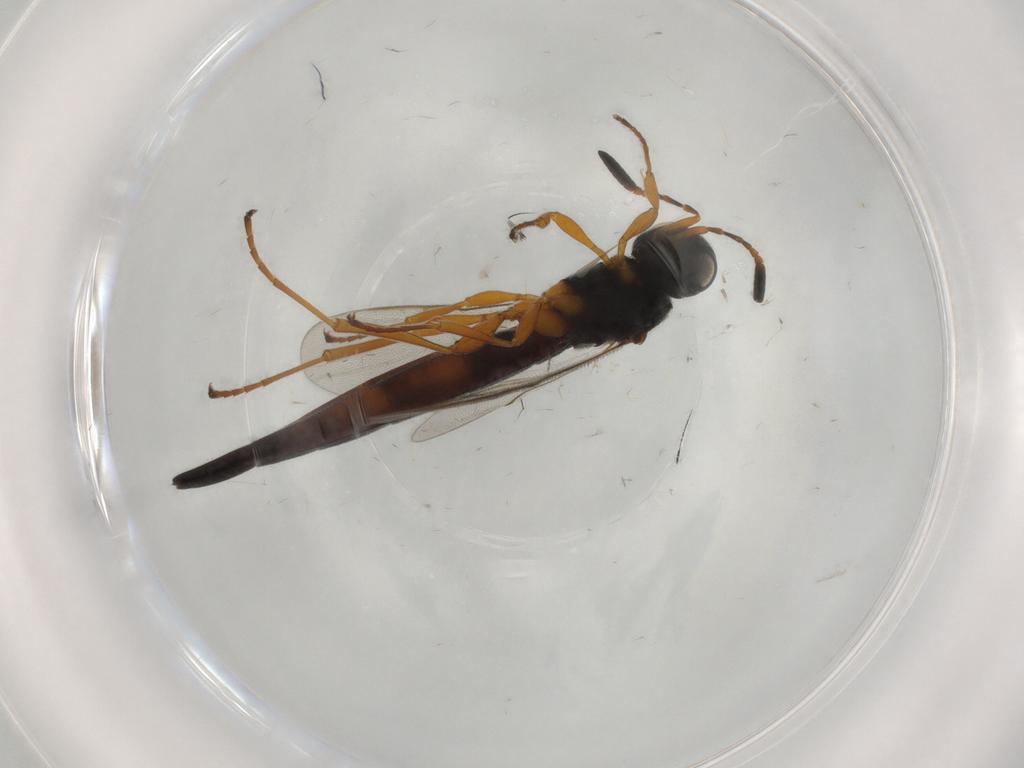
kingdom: Animalia
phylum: Arthropoda
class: Insecta
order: Hymenoptera
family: Scelionidae
